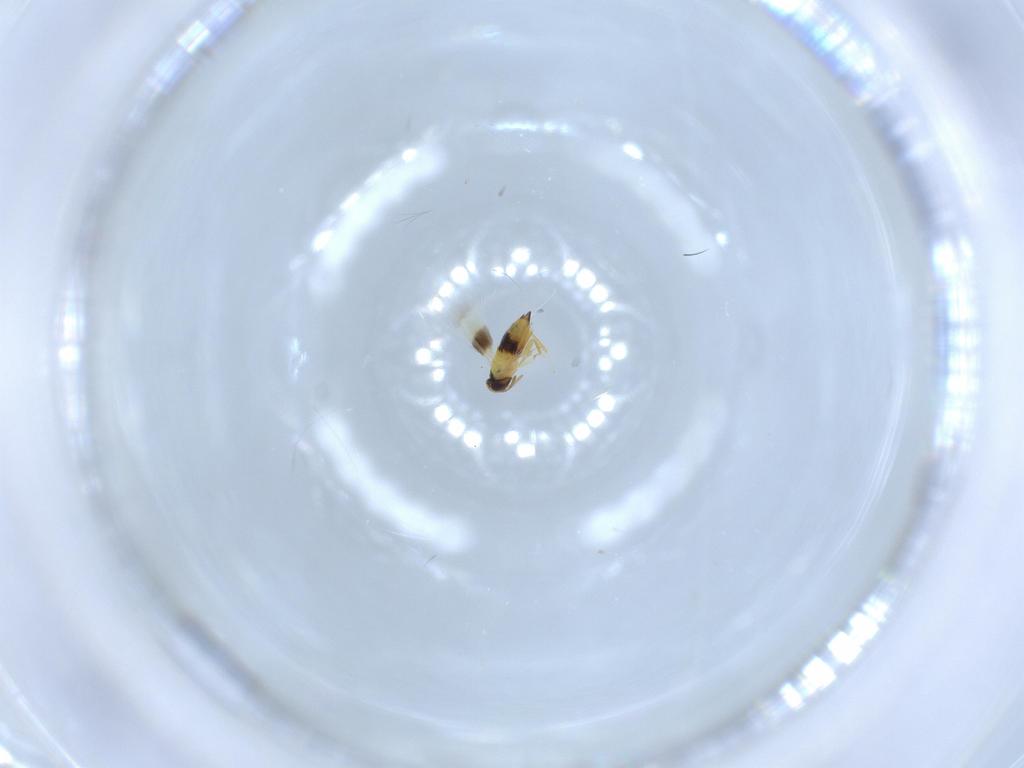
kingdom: Animalia
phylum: Arthropoda
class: Insecta
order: Hymenoptera
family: Signiphoridae
